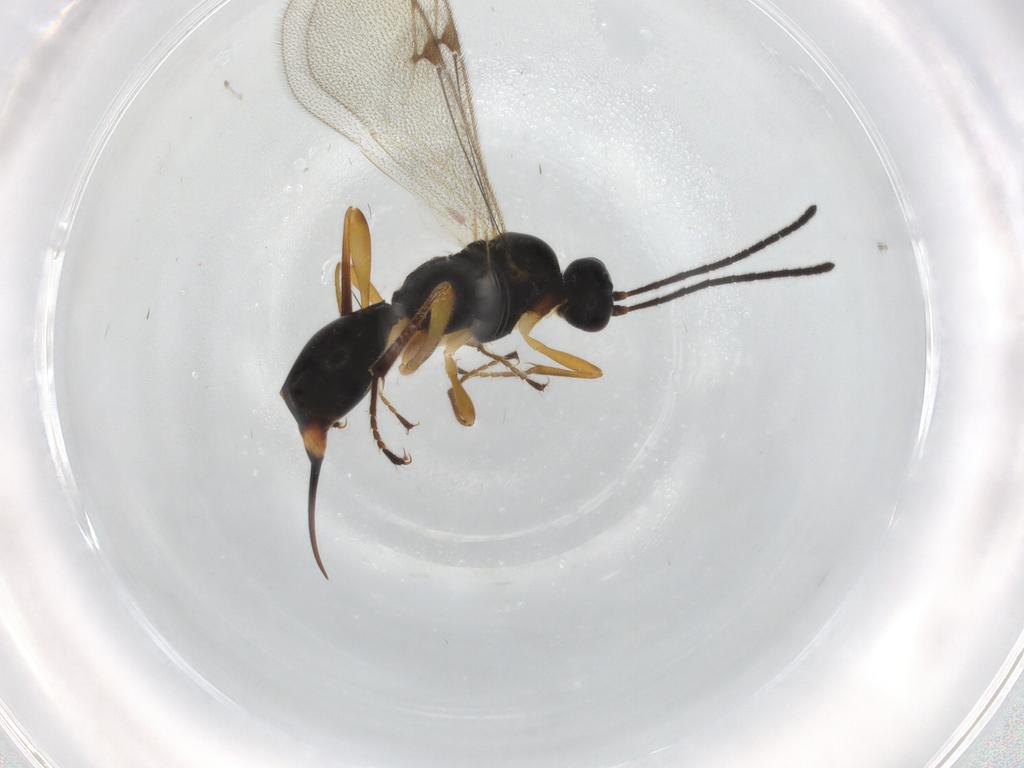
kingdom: Animalia
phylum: Arthropoda
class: Insecta
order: Hymenoptera
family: Proctotrupidae
